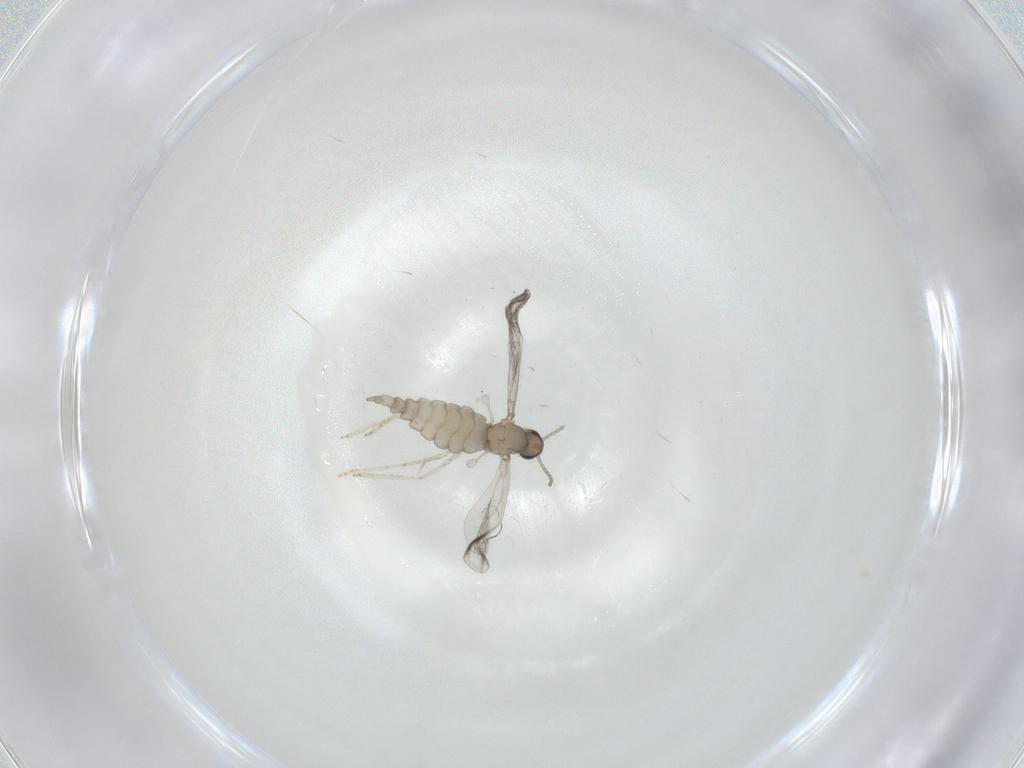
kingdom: Animalia
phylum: Arthropoda
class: Insecta
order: Diptera
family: Cecidomyiidae
